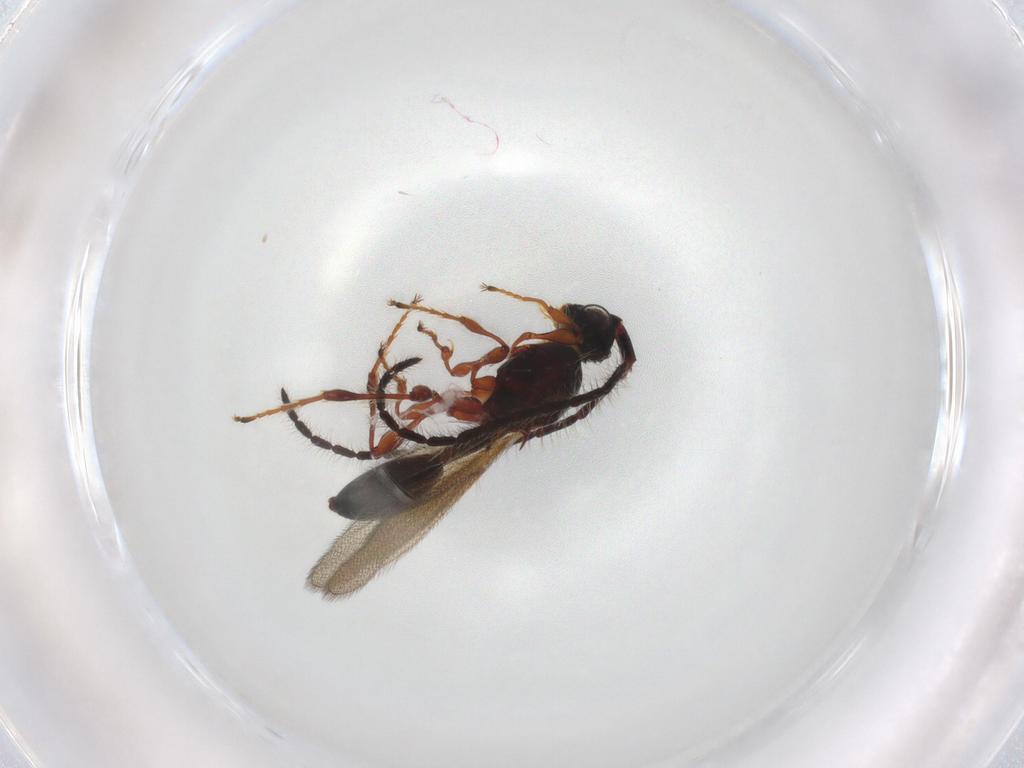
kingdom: Animalia
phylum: Arthropoda
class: Insecta
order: Hymenoptera
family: Diapriidae
